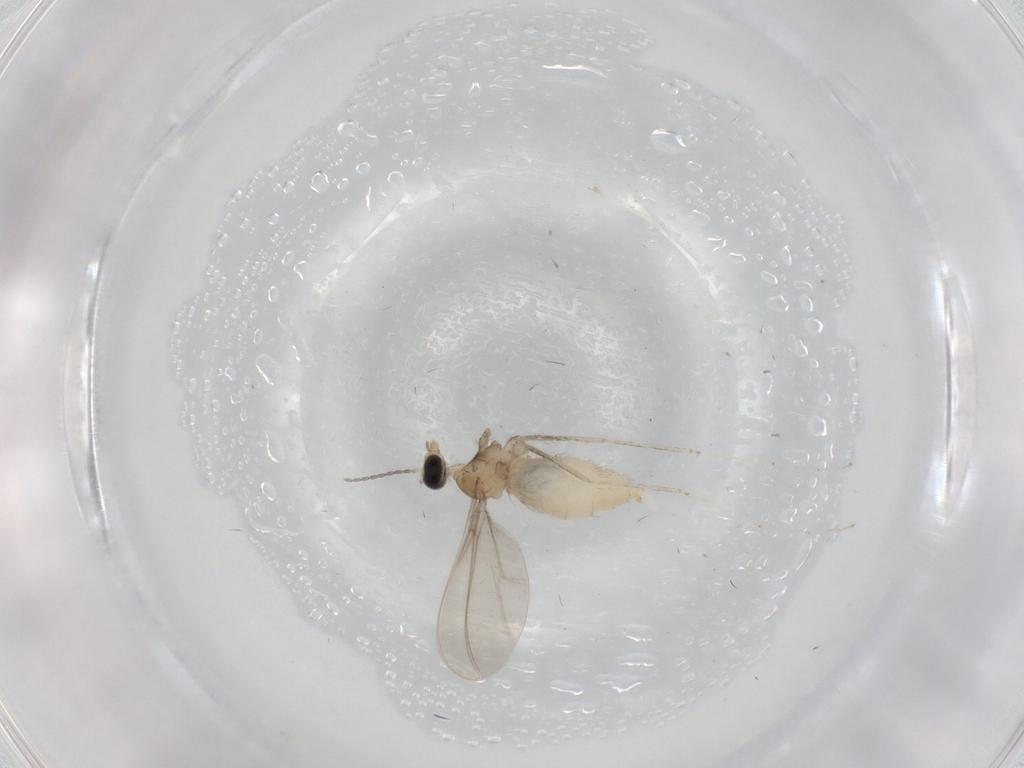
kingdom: Animalia
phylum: Arthropoda
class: Insecta
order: Diptera
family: Cecidomyiidae
